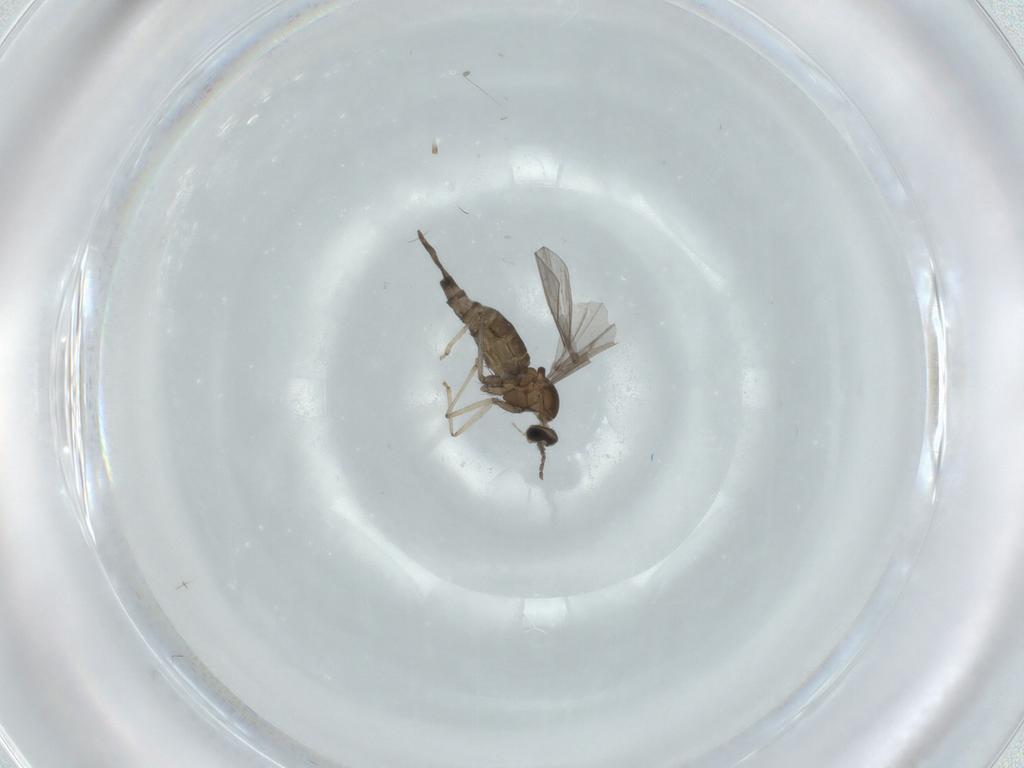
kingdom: Animalia
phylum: Arthropoda
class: Insecta
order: Diptera
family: Cecidomyiidae
